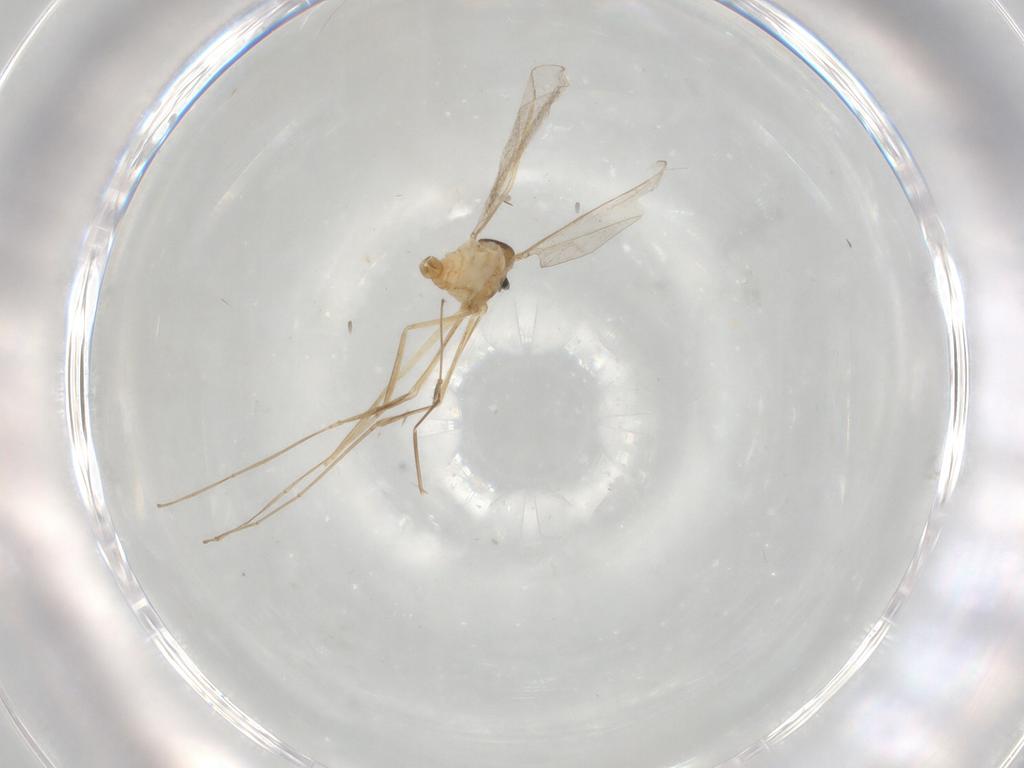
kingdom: Animalia
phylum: Arthropoda
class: Insecta
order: Diptera
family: Cecidomyiidae
